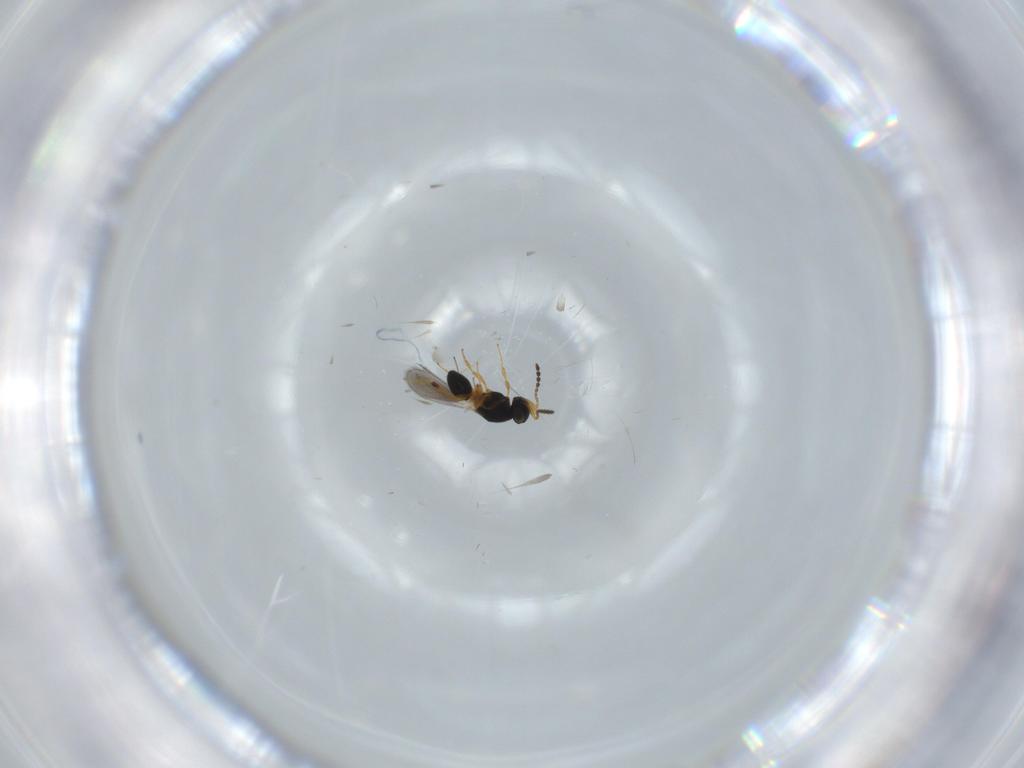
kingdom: Animalia
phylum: Arthropoda
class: Insecta
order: Hymenoptera
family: Platygastridae
